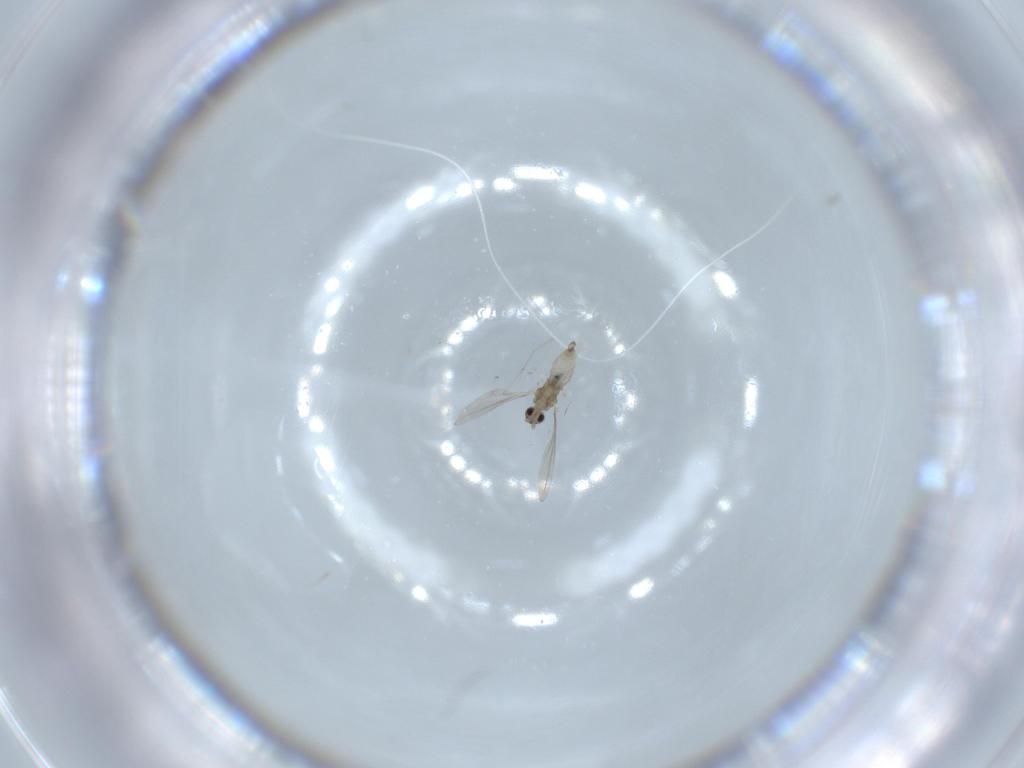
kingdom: Animalia
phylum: Arthropoda
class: Insecta
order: Diptera
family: Cecidomyiidae
